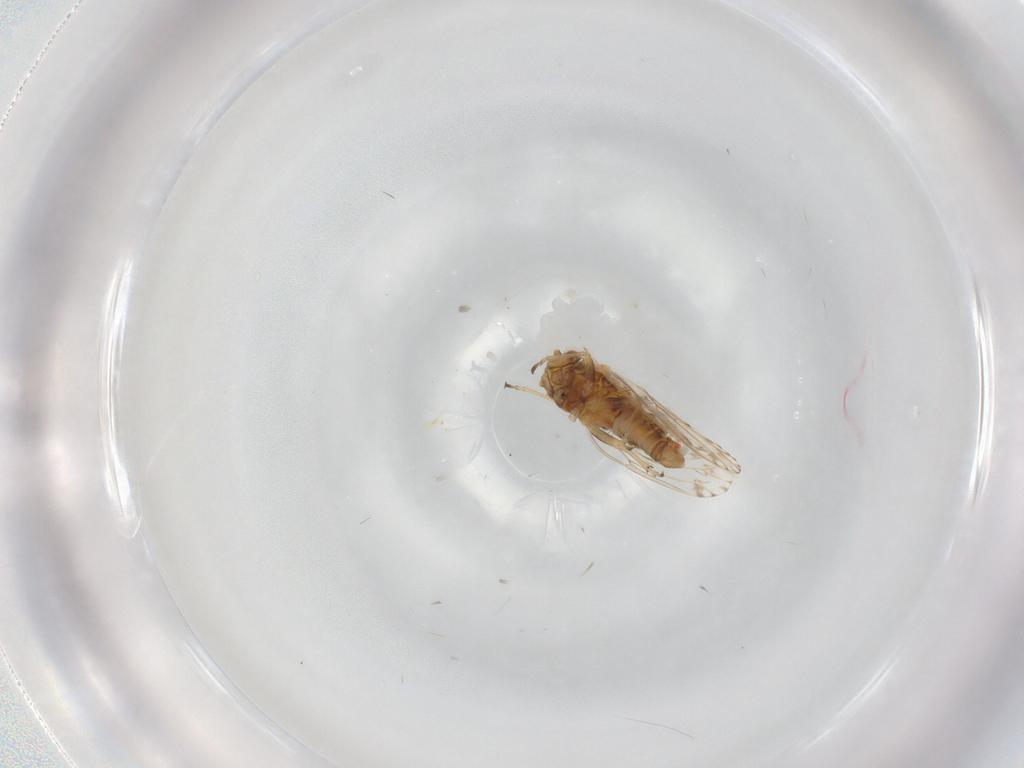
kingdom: Animalia
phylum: Arthropoda
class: Insecta
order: Hemiptera
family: Psyllidae
